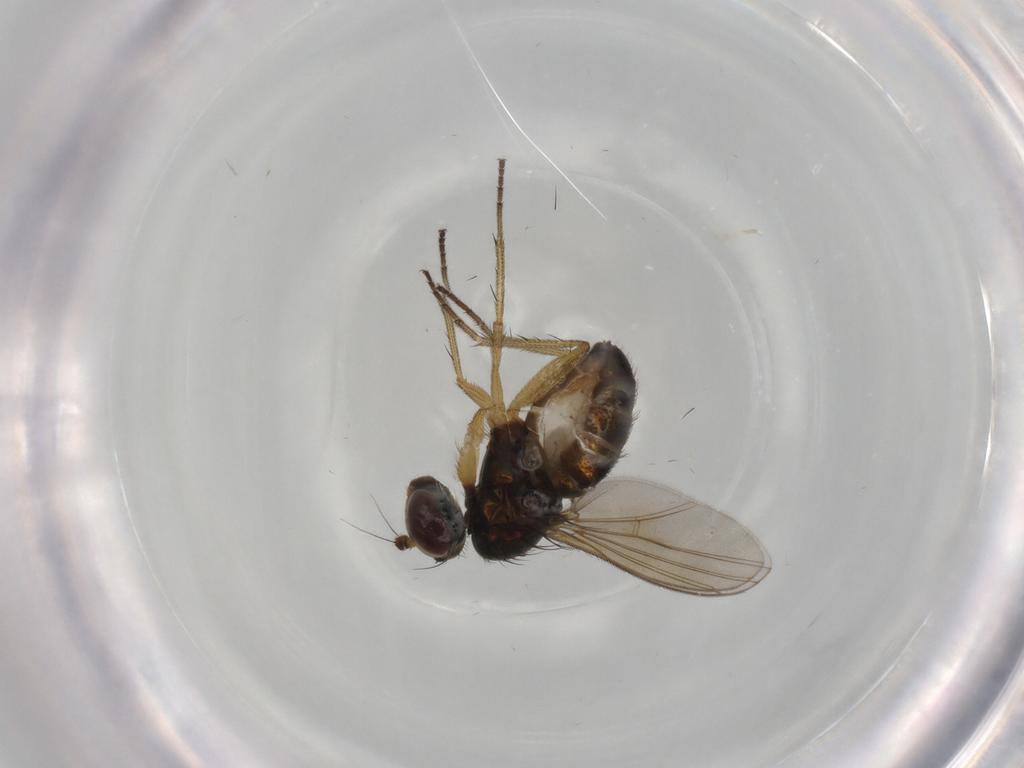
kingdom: Animalia
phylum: Arthropoda
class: Insecta
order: Diptera
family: Dolichopodidae
